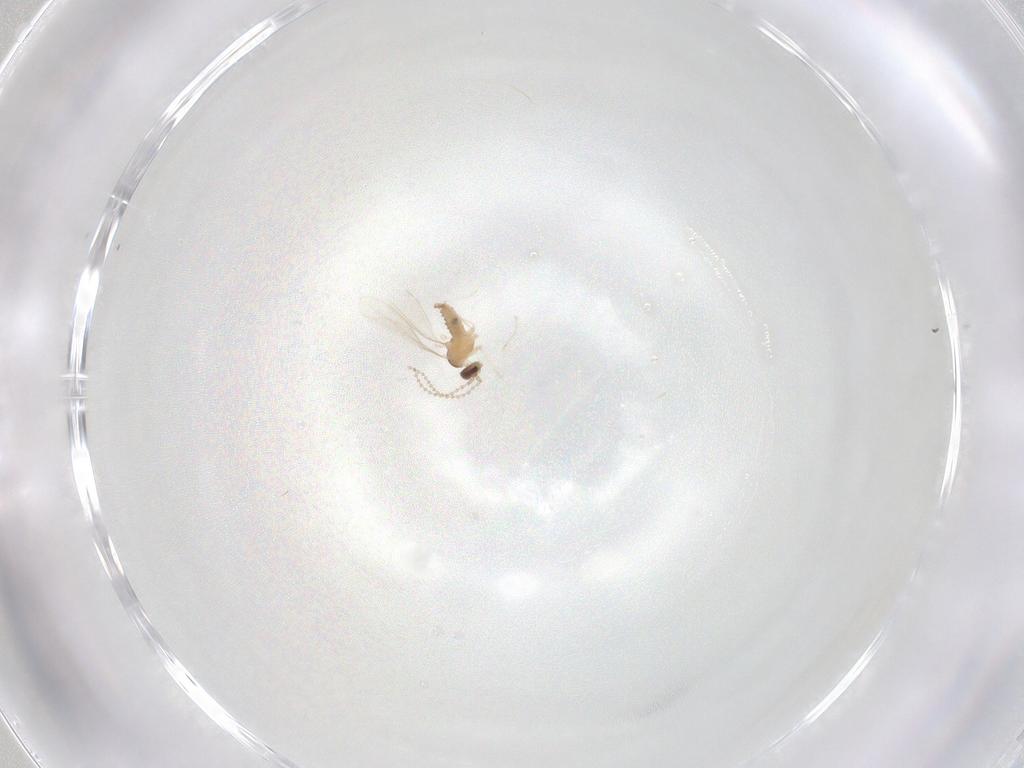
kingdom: Animalia
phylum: Arthropoda
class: Insecta
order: Diptera
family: Cecidomyiidae
